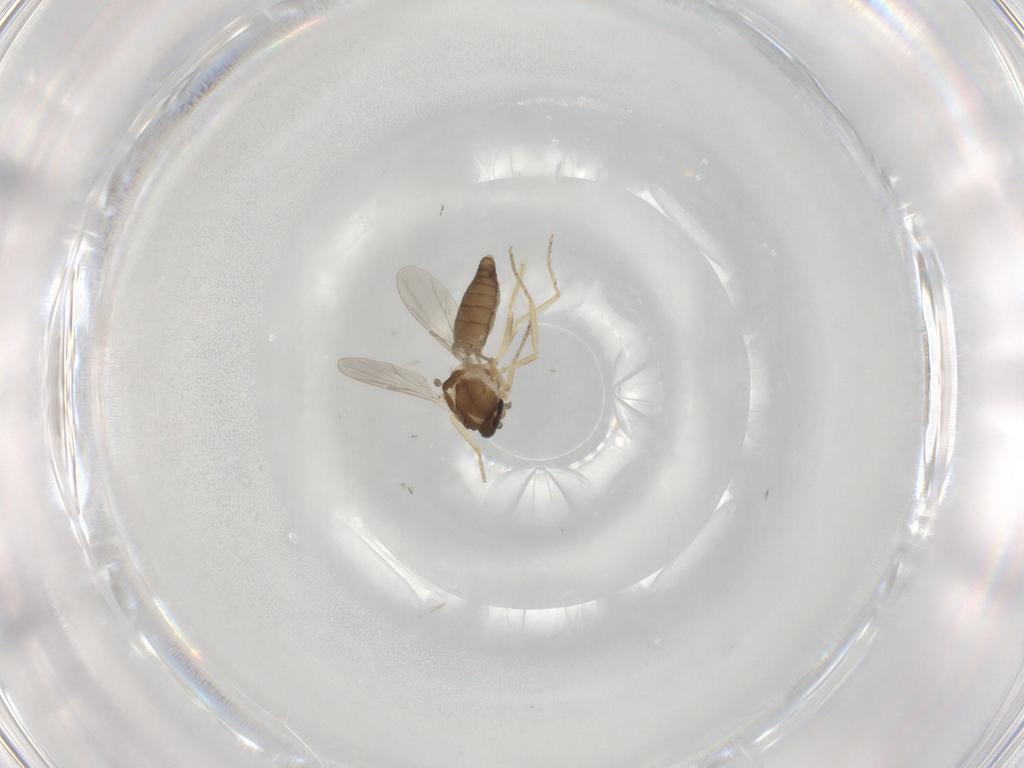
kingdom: Animalia
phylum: Arthropoda
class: Insecta
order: Diptera
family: Ceratopogonidae
